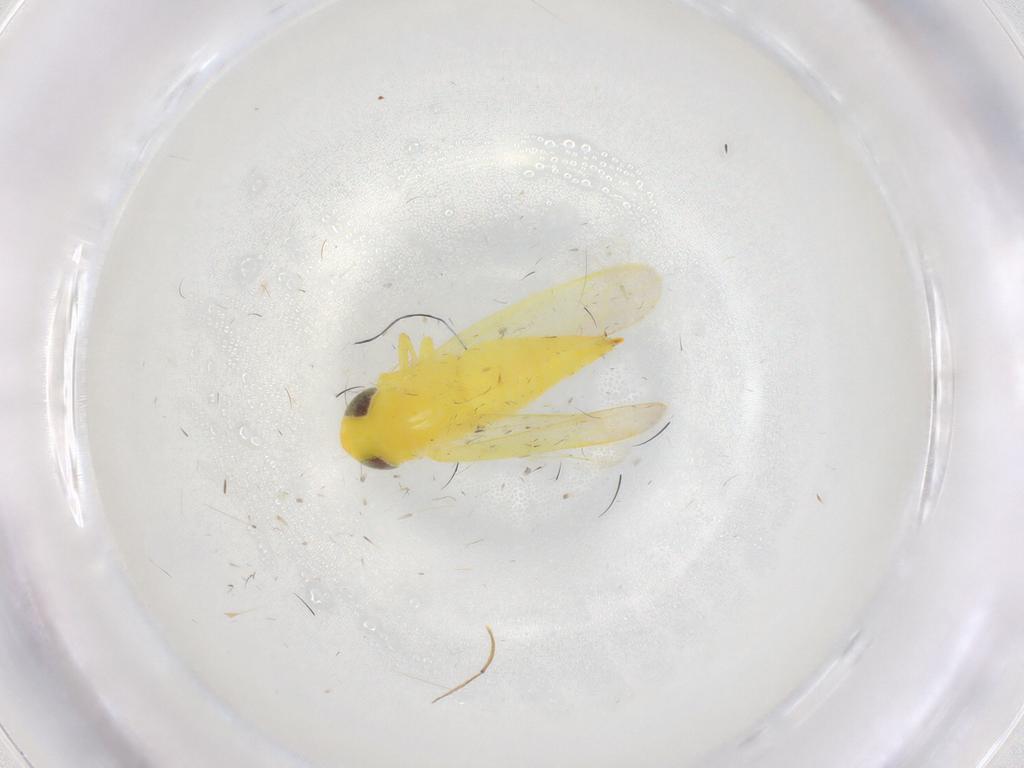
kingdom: Animalia
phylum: Arthropoda
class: Insecta
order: Hemiptera
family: Cicadellidae
